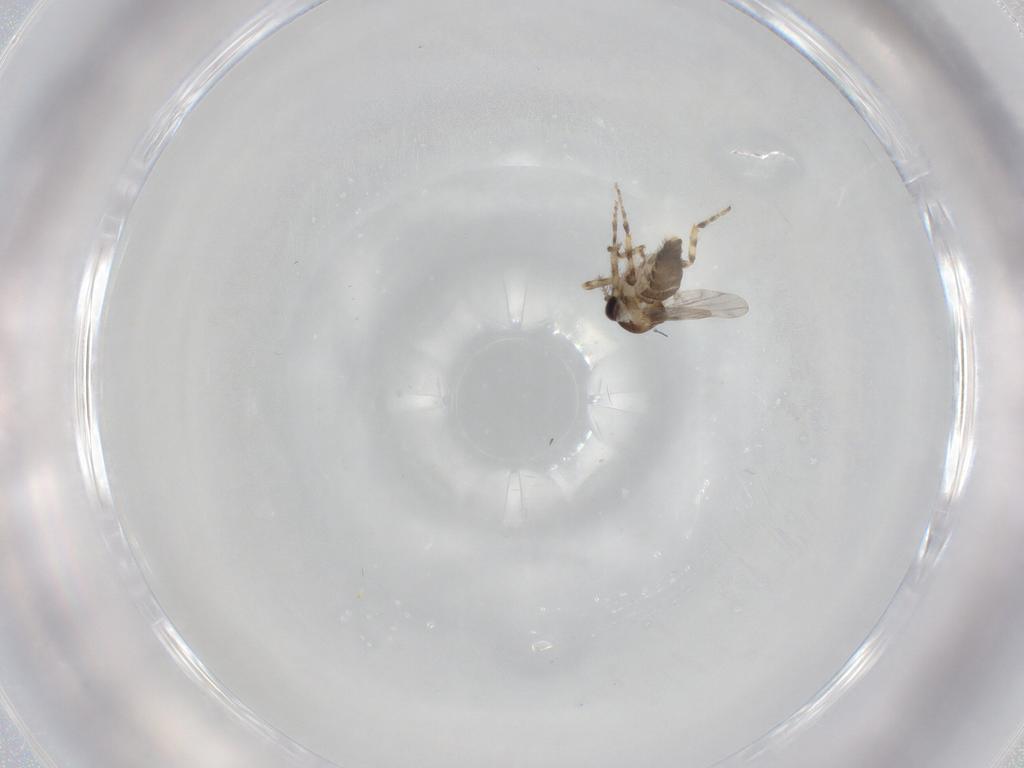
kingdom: Animalia
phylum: Arthropoda
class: Insecta
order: Diptera
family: Ceratopogonidae
